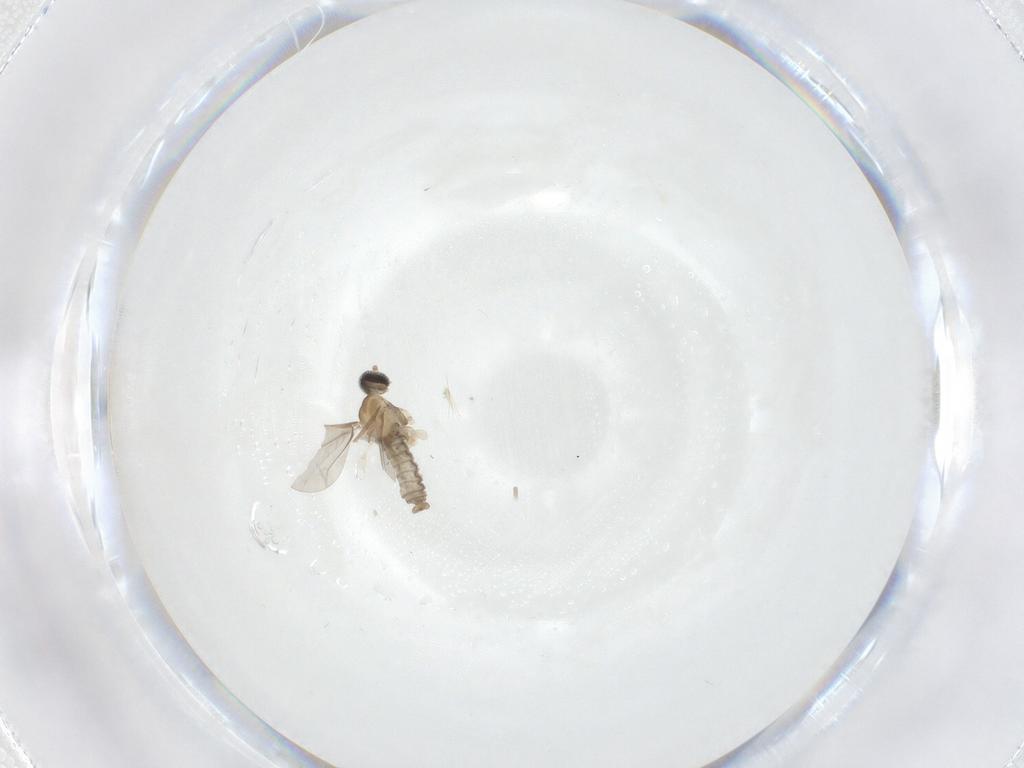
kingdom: Animalia
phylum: Arthropoda
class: Insecta
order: Diptera
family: Cecidomyiidae
